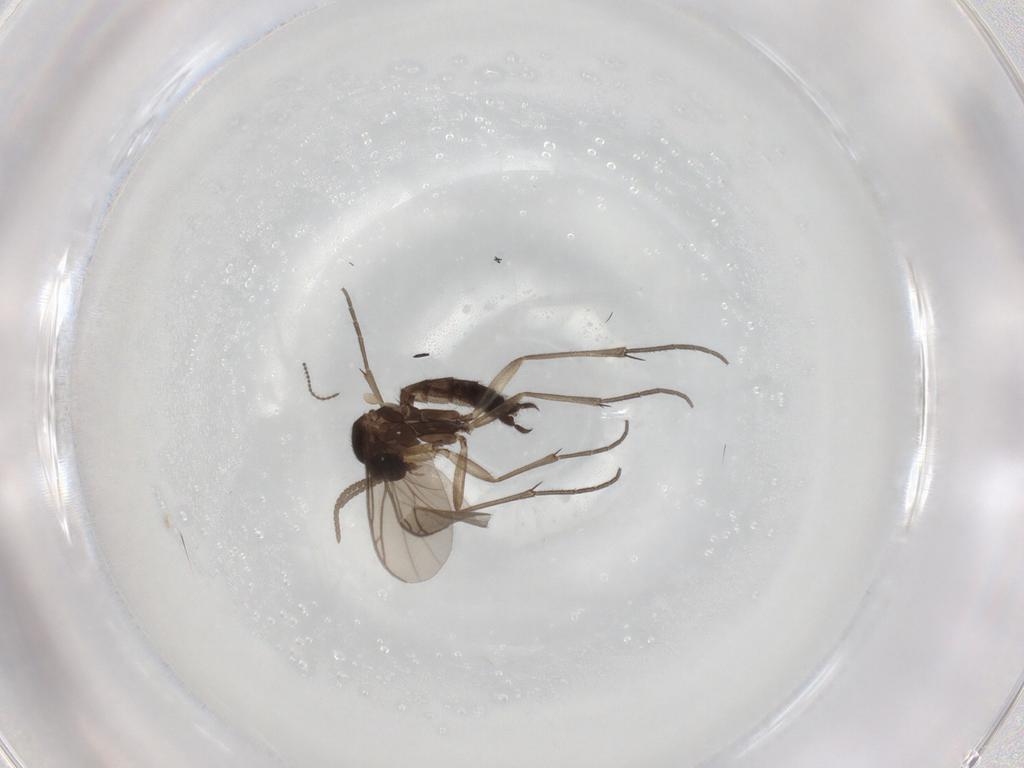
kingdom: Animalia
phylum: Arthropoda
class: Insecta
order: Diptera
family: Keroplatidae
